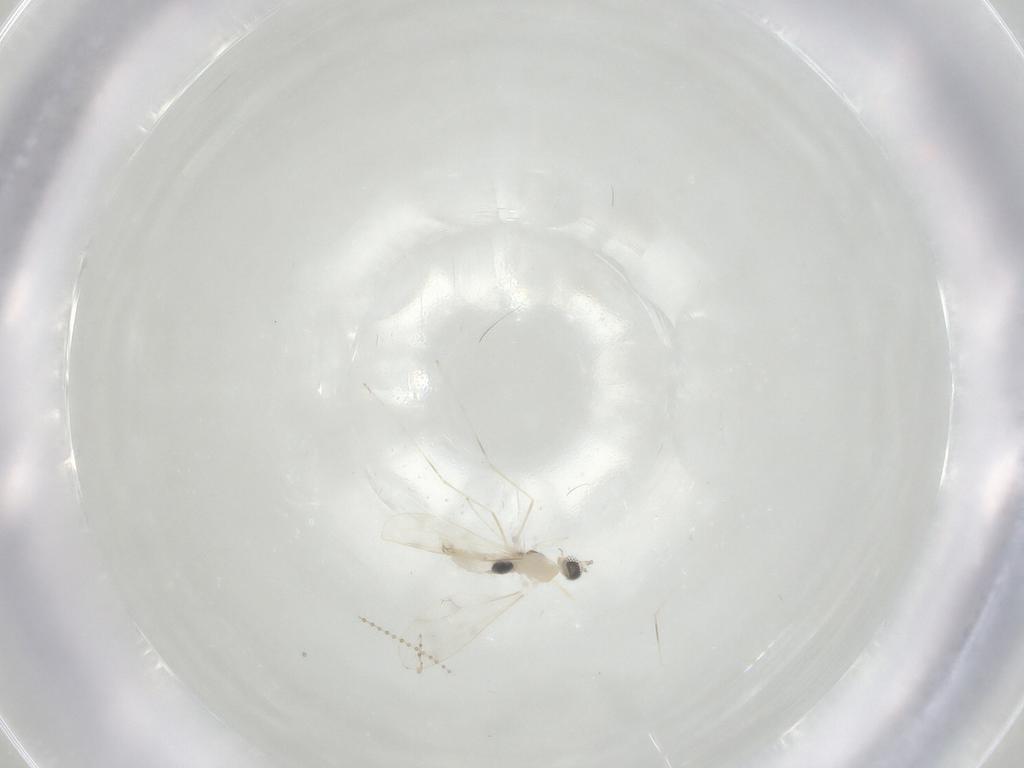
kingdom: Animalia
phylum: Arthropoda
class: Insecta
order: Diptera
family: Cecidomyiidae
